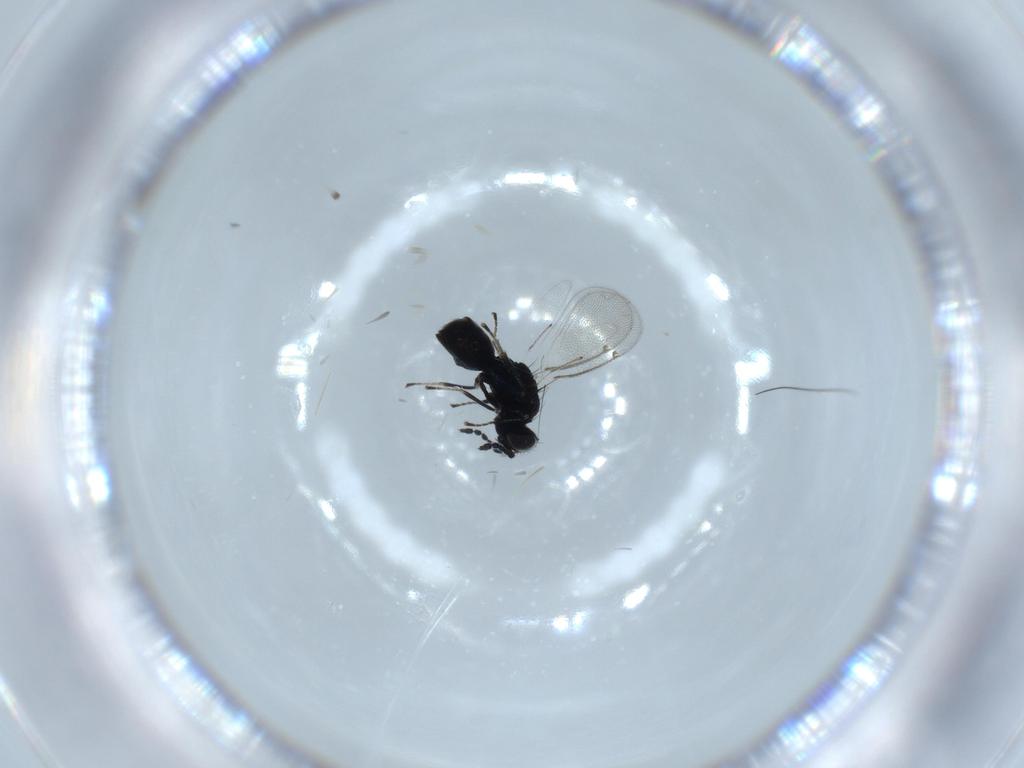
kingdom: Animalia
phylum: Arthropoda
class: Insecta
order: Hymenoptera
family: Eulophidae
